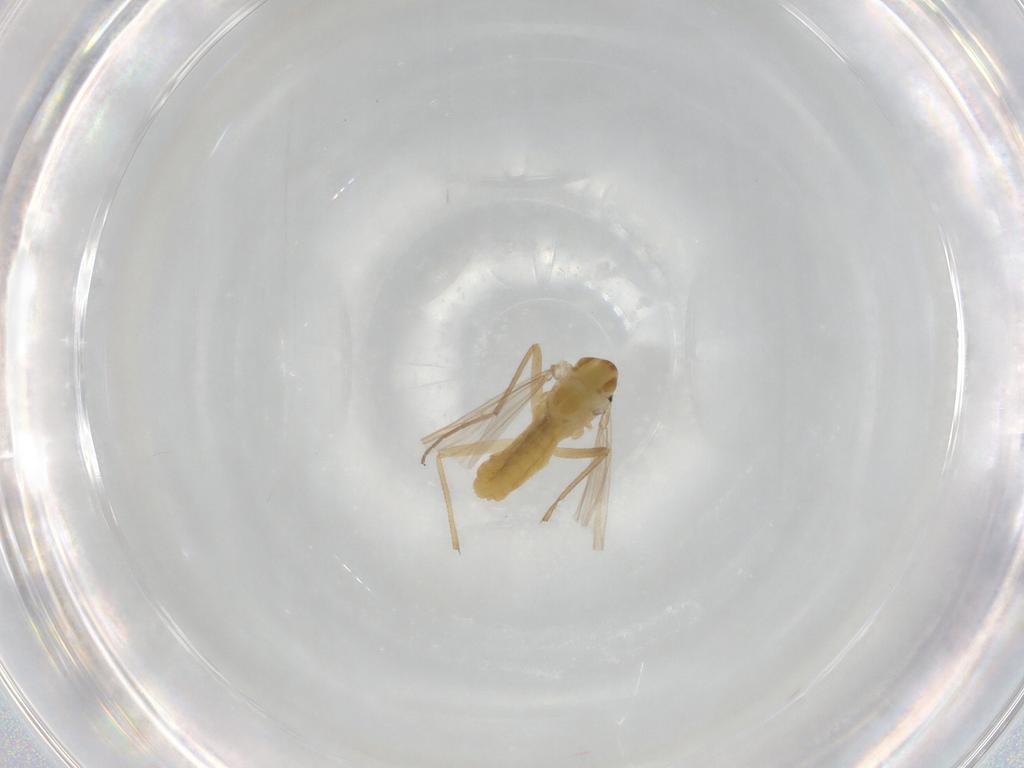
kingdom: Animalia
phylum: Arthropoda
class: Insecta
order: Diptera
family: Chironomidae
